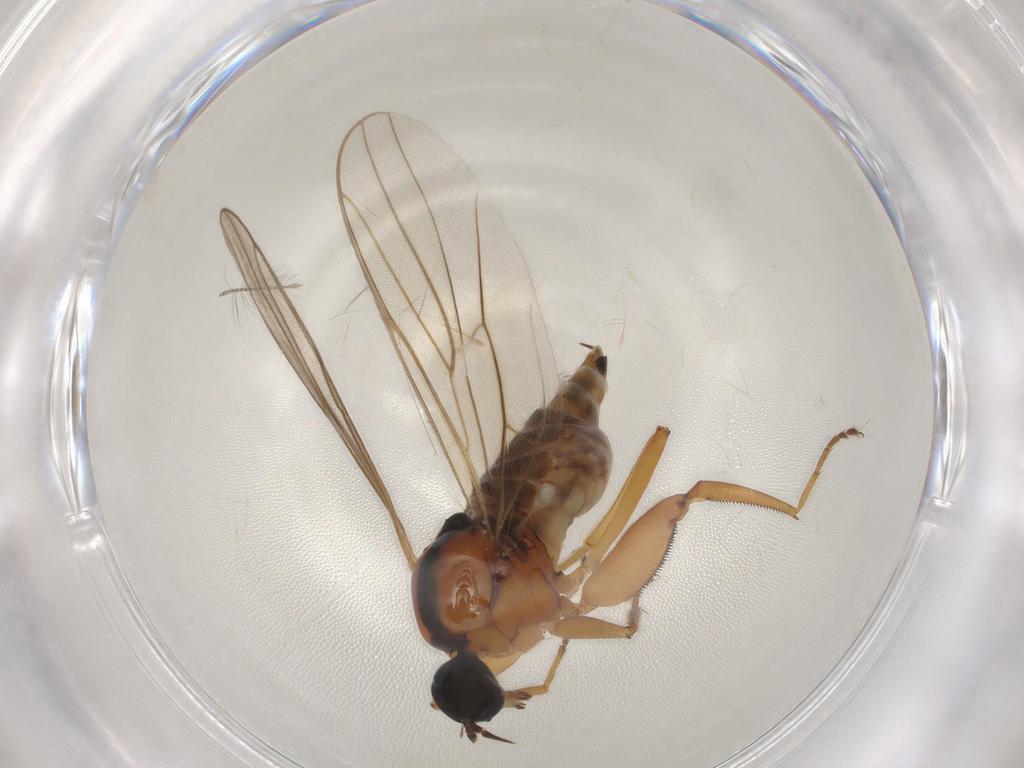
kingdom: Animalia
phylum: Arthropoda
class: Insecta
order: Diptera
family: Hybotidae
